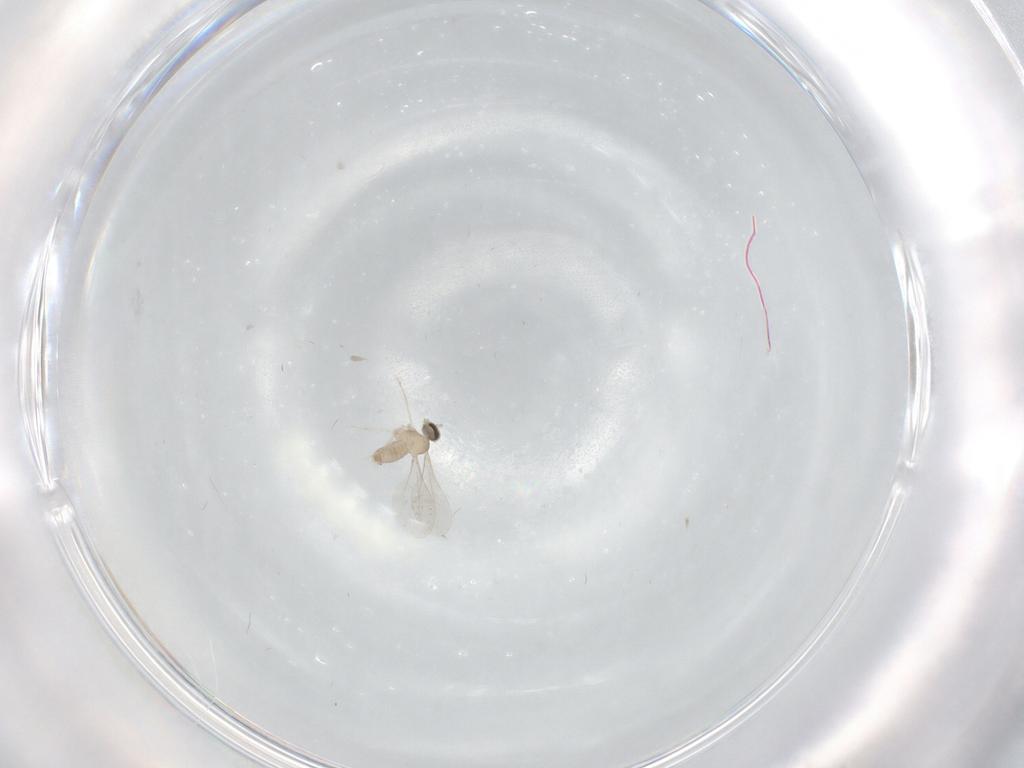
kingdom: Animalia
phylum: Arthropoda
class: Insecta
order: Diptera
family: Cecidomyiidae
